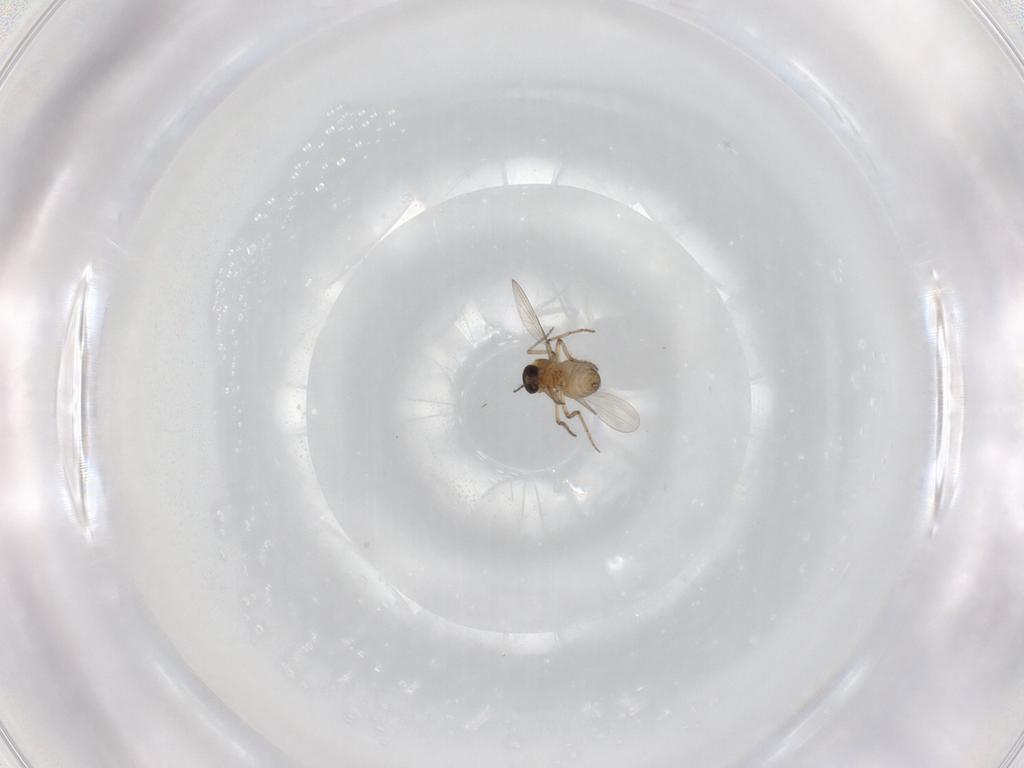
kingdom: Animalia
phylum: Arthropoda
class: Insecta
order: Diptera
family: Ceratopogonidae
